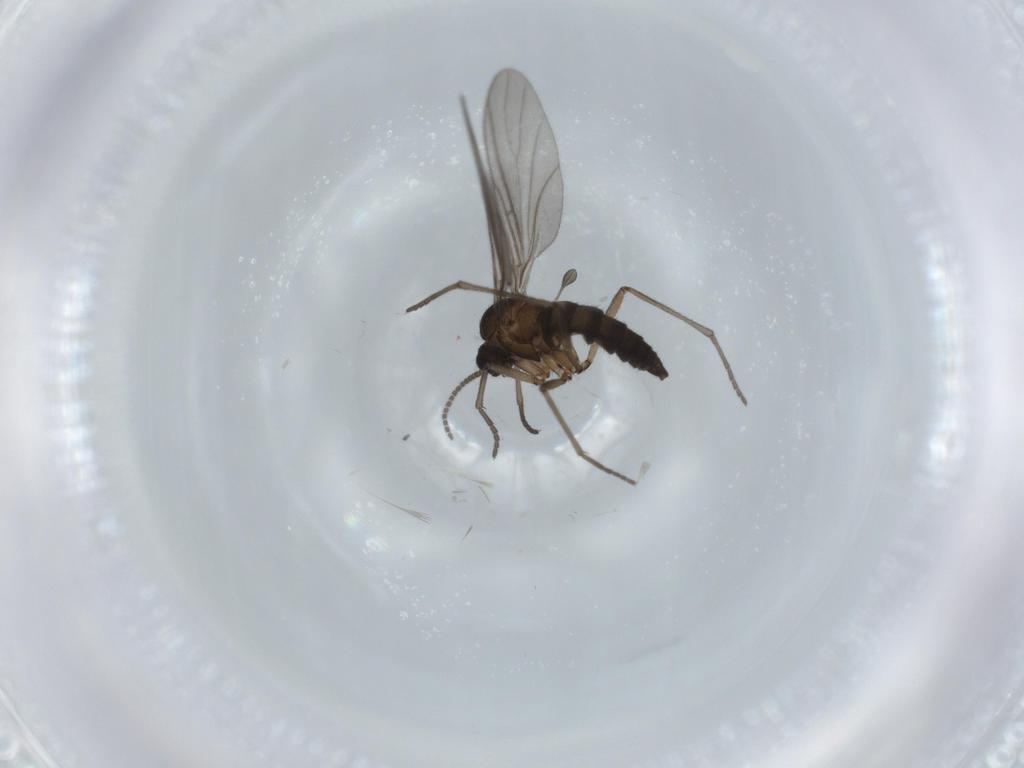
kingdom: Animalia
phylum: Arthropoda
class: Insecta
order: Diptera
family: Sciaridae
